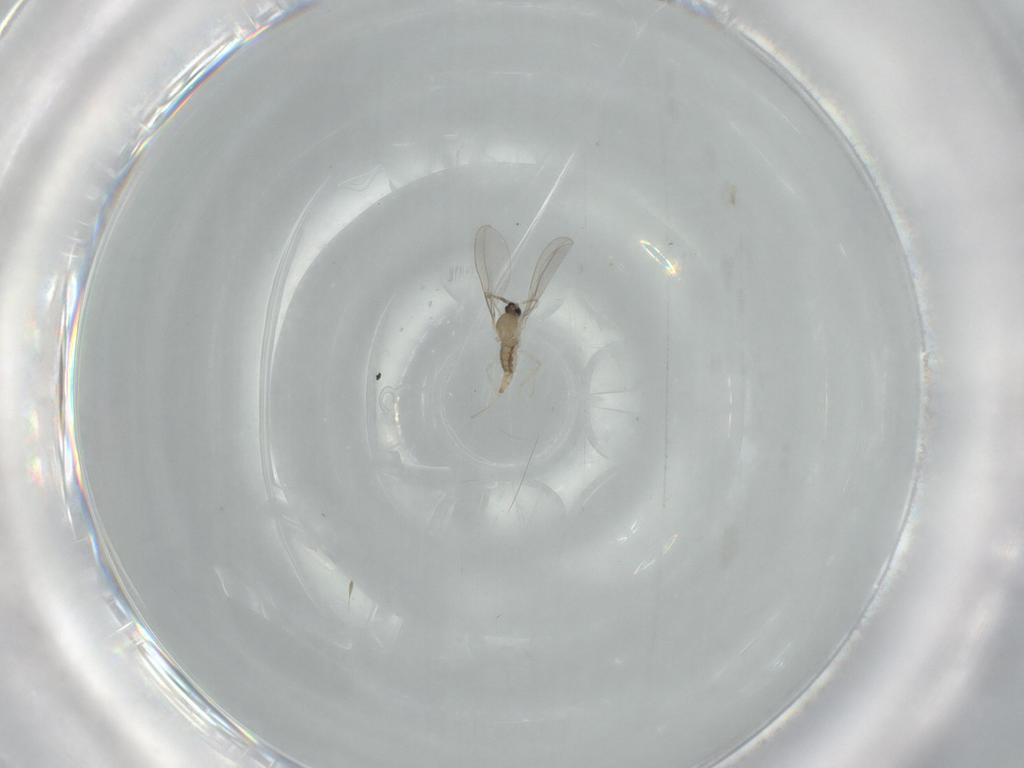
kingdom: Animalia
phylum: Arthropoda
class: Insecta
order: Diptera
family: Cecidomyiidae
